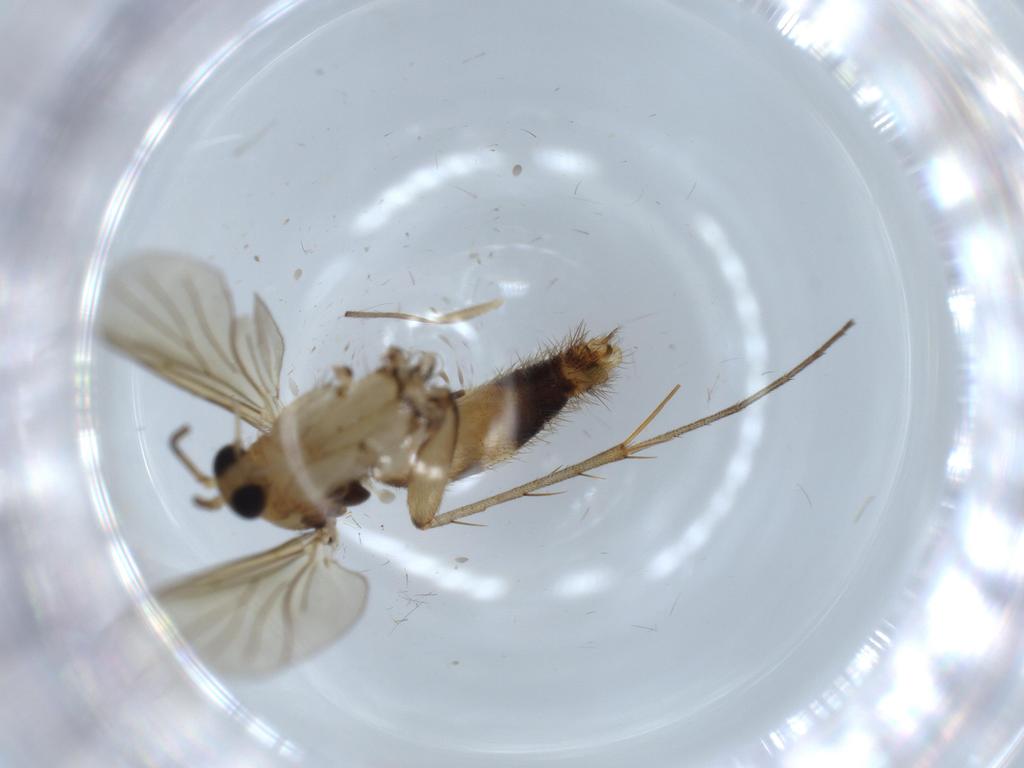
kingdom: Animalia
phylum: Arthropoda
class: Insecta
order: Diptera
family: Mycetophilidae
